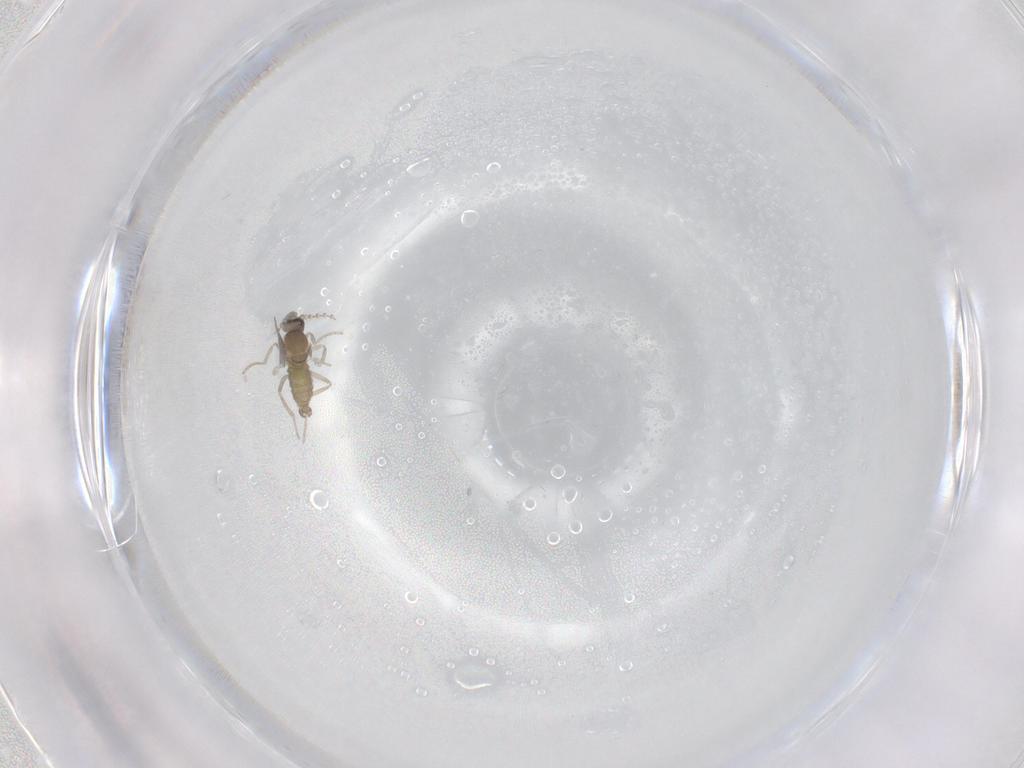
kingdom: Animalia
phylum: Arthropoda
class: Insecta
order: Diptera
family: Cecidomyiidae
